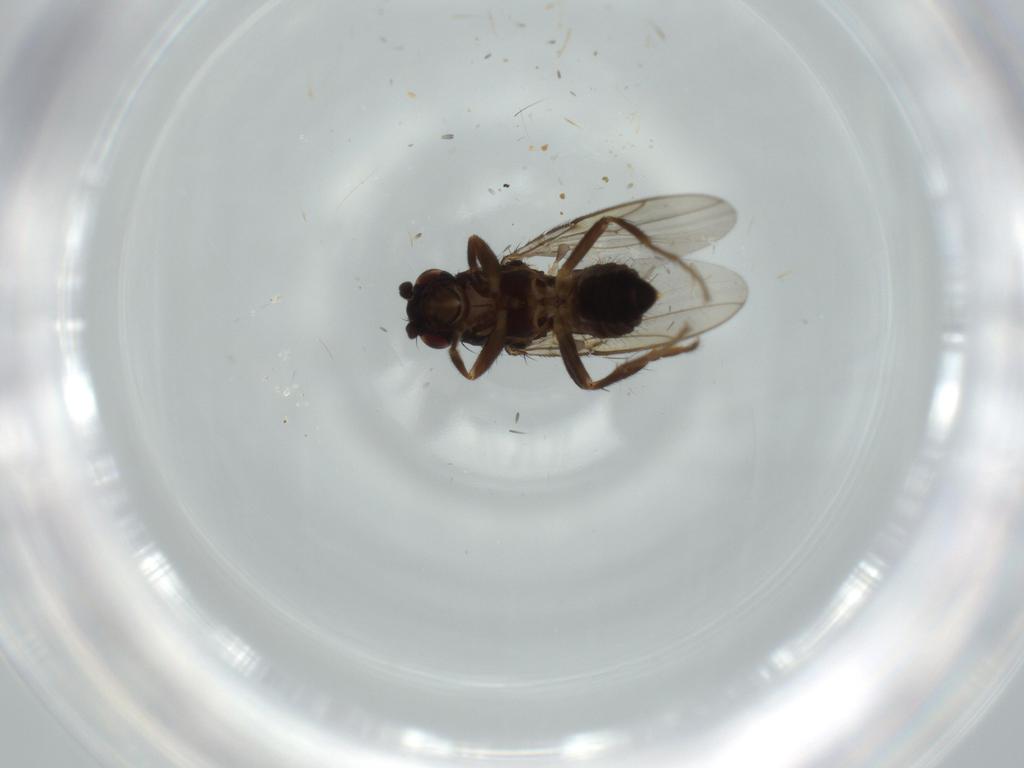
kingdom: Animalia
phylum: Arthropoda
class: Insecta
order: Diptera
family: Sphaeroceridae
